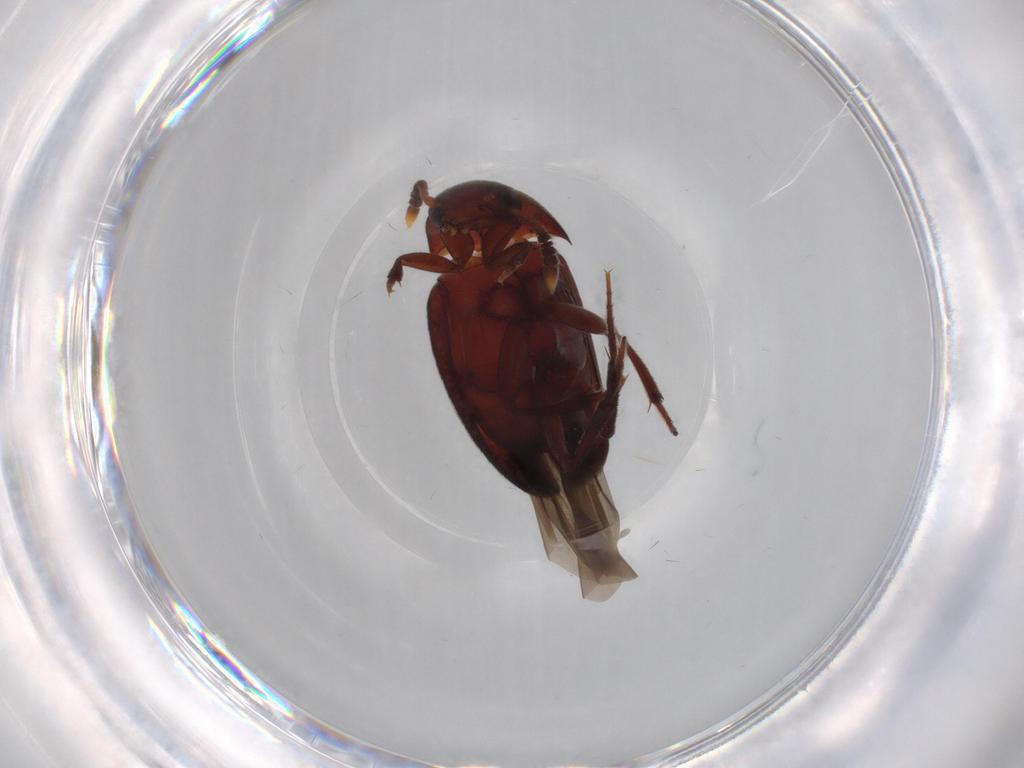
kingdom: Animalia
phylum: Arthropoda
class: Insecta
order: Coleoptera
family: Leiodidae
